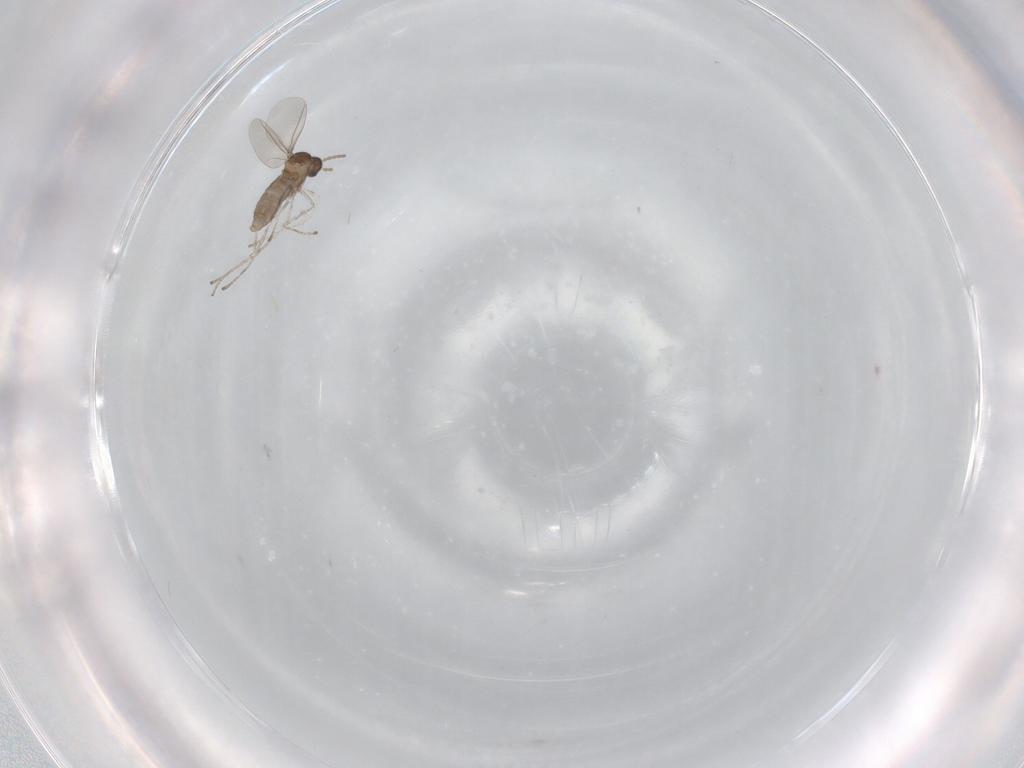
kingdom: Animalia
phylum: Arthropoda
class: Insecta
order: Diptera
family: Cecidomyiidae
